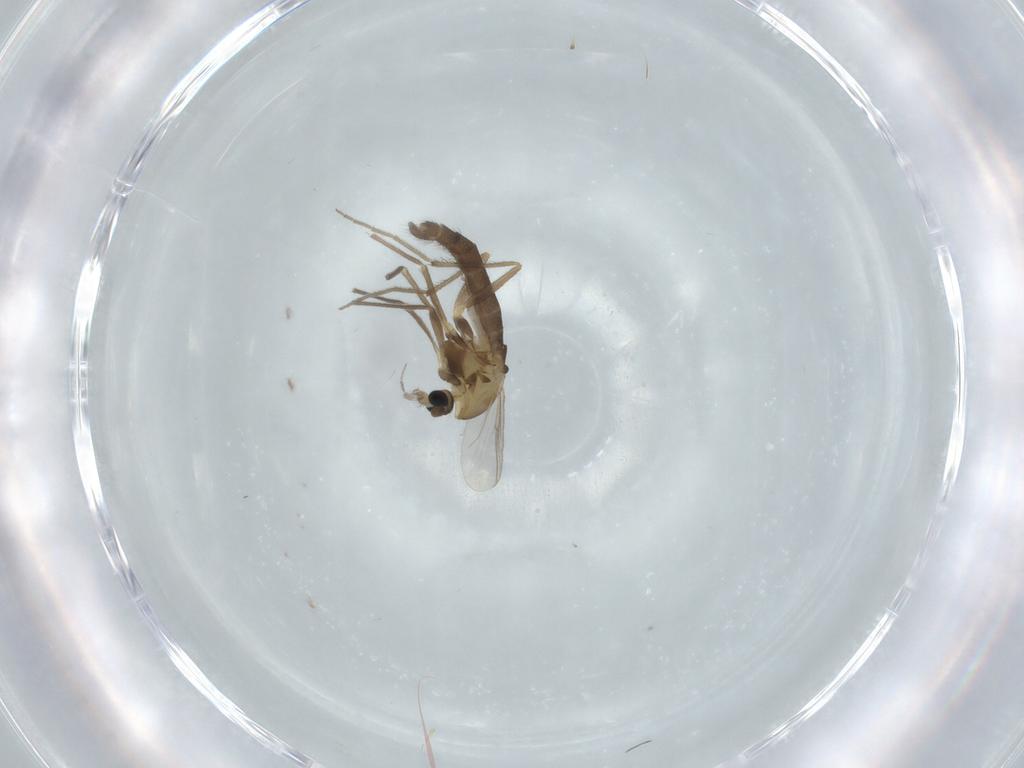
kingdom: Animalia
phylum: Arthropoda
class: Insecta
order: Diptera
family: Chironomidae
